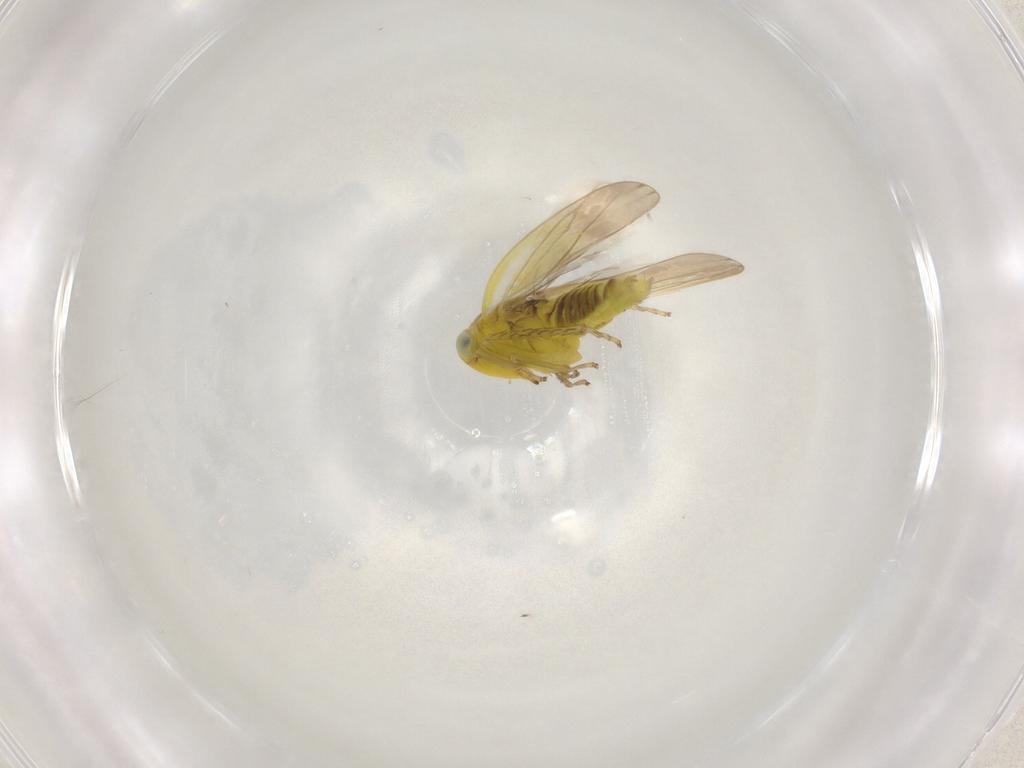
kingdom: Animalia
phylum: Arthropoda
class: Insecta
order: Hemiptera
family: Cicadellidae
